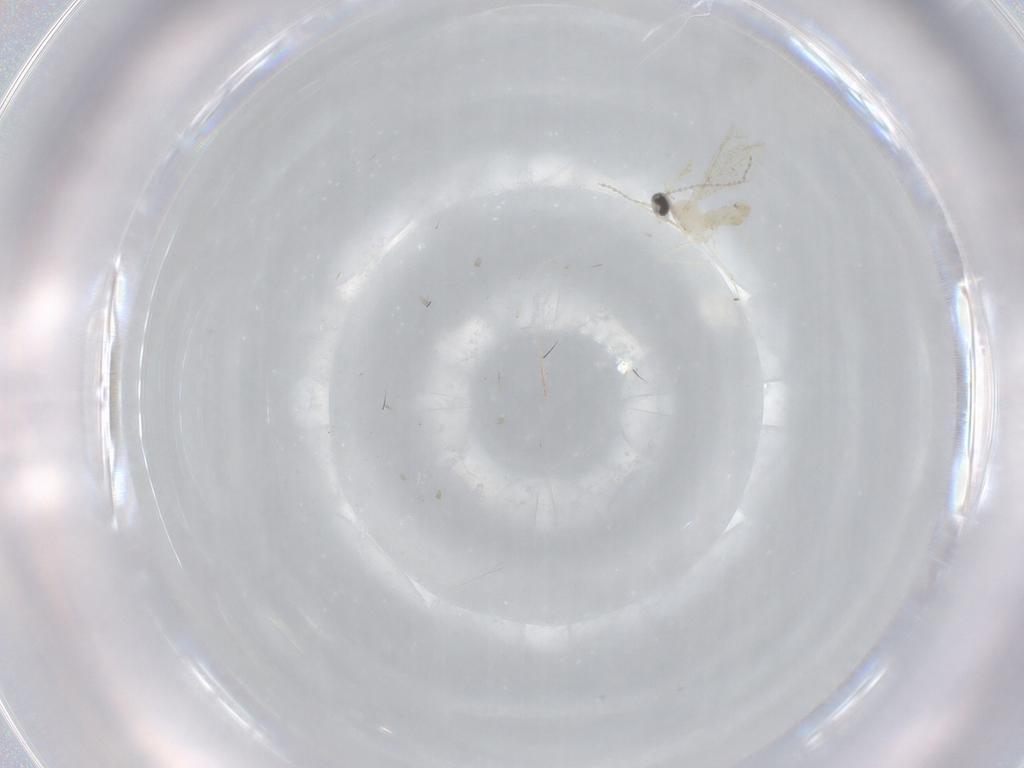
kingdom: Animalia
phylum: Arthropoda
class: Insecta
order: Diptera
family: Cecidomyiidae
